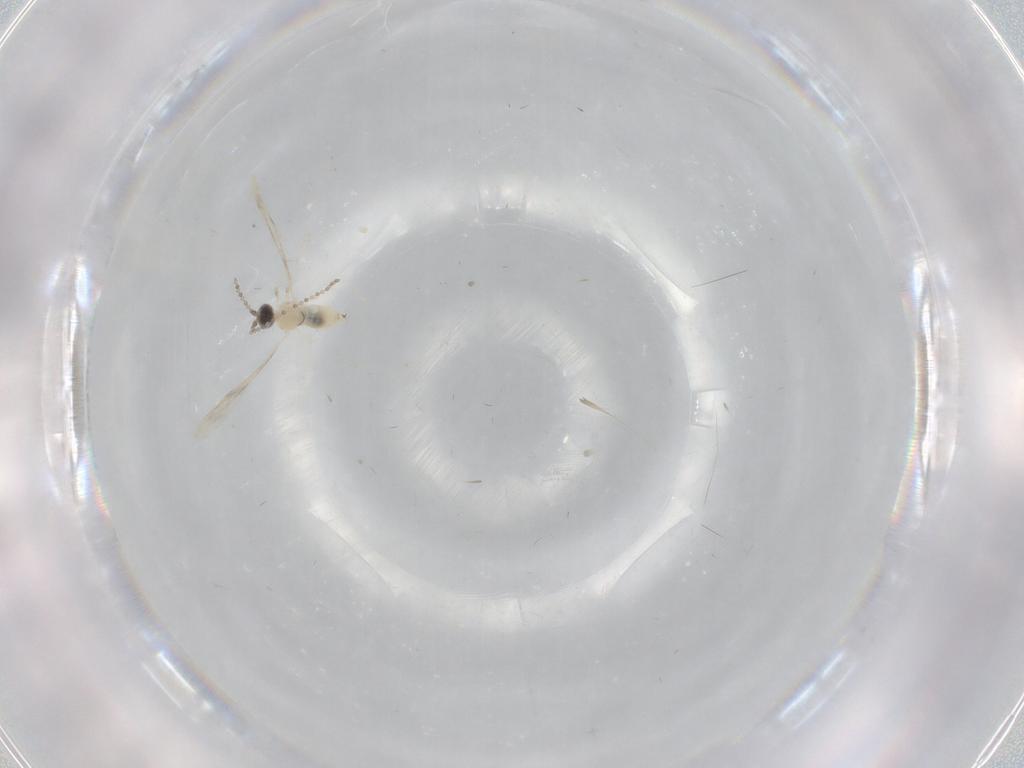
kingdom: Animalia
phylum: Arthropoda
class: Insecta
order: Diptera
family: Cecidomyiidae
